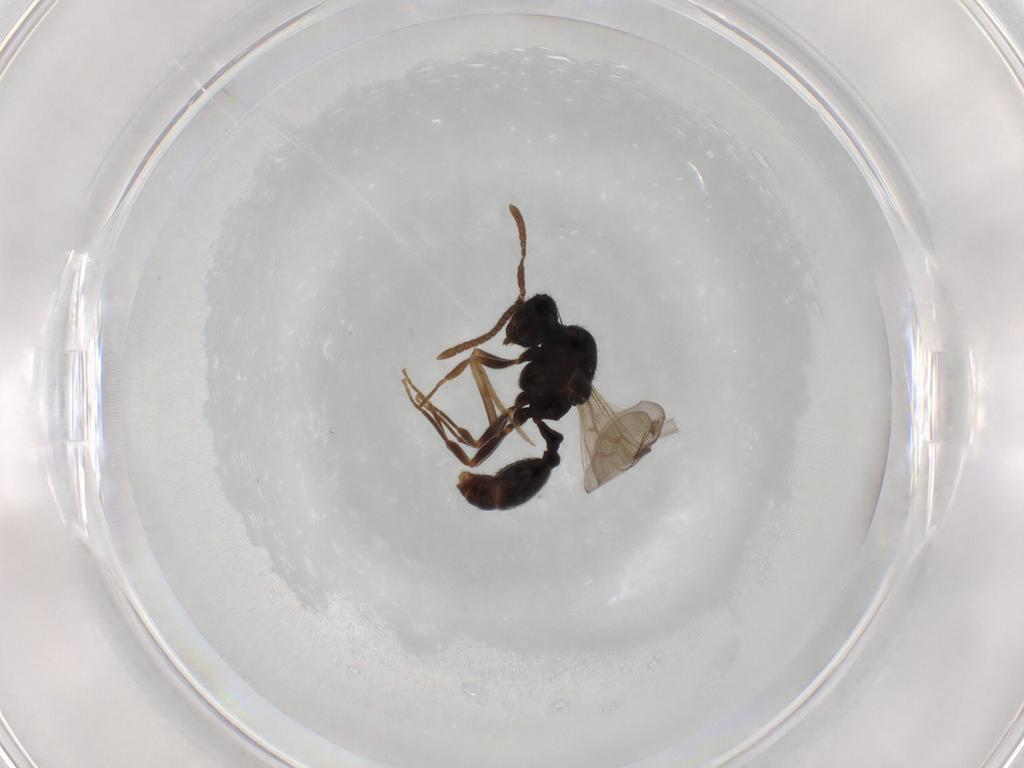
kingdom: Animalia
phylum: Arthropoda
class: Insecta
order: Hymenoptera
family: Formicidae
